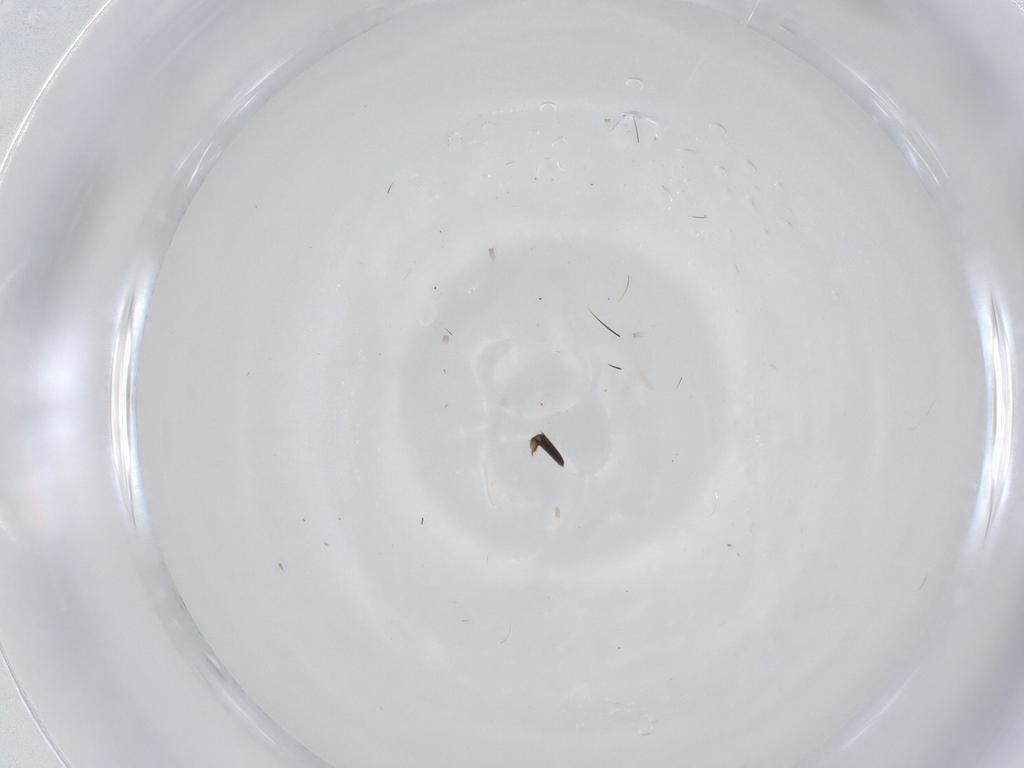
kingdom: Animalia
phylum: Arthropoda
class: Insecta
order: Diptera
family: Asilidae
